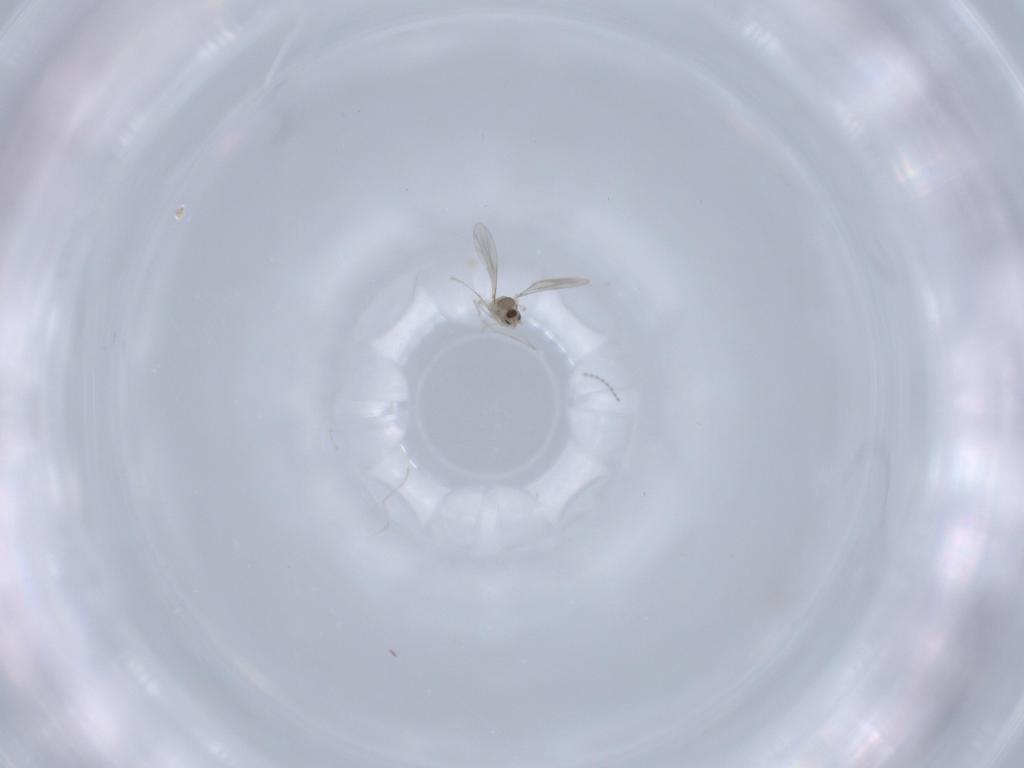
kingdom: Animalia
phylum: Arthropoda
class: Insecta
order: Diptera
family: Cecidomyiidae
